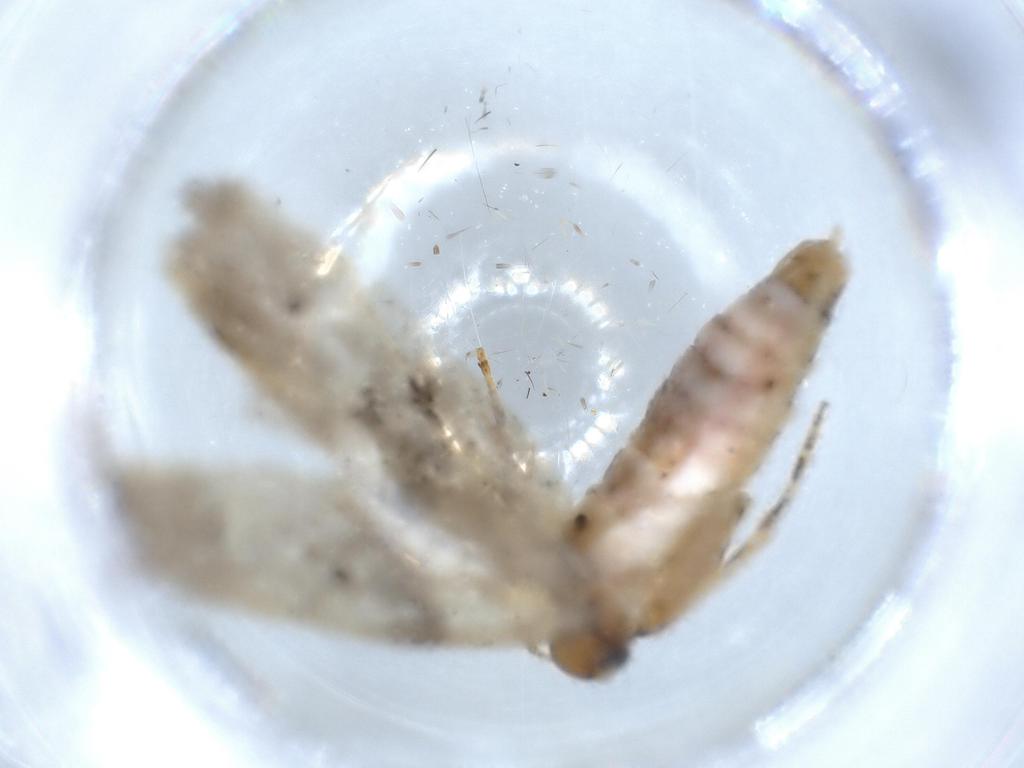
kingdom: Animalia
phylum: Arthropoda
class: Insecta
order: Lepidoptera
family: Gelechiidae
